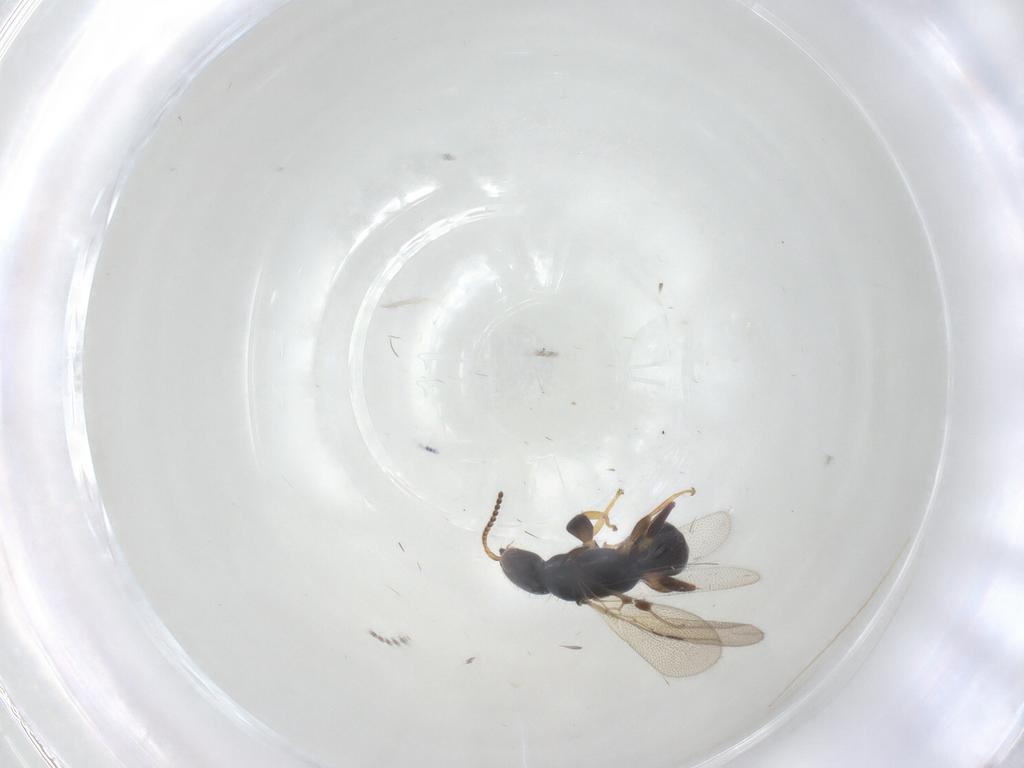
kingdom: Animalia
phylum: Arthropoda
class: Insecta
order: Hymenoptera
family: Bethylidae
